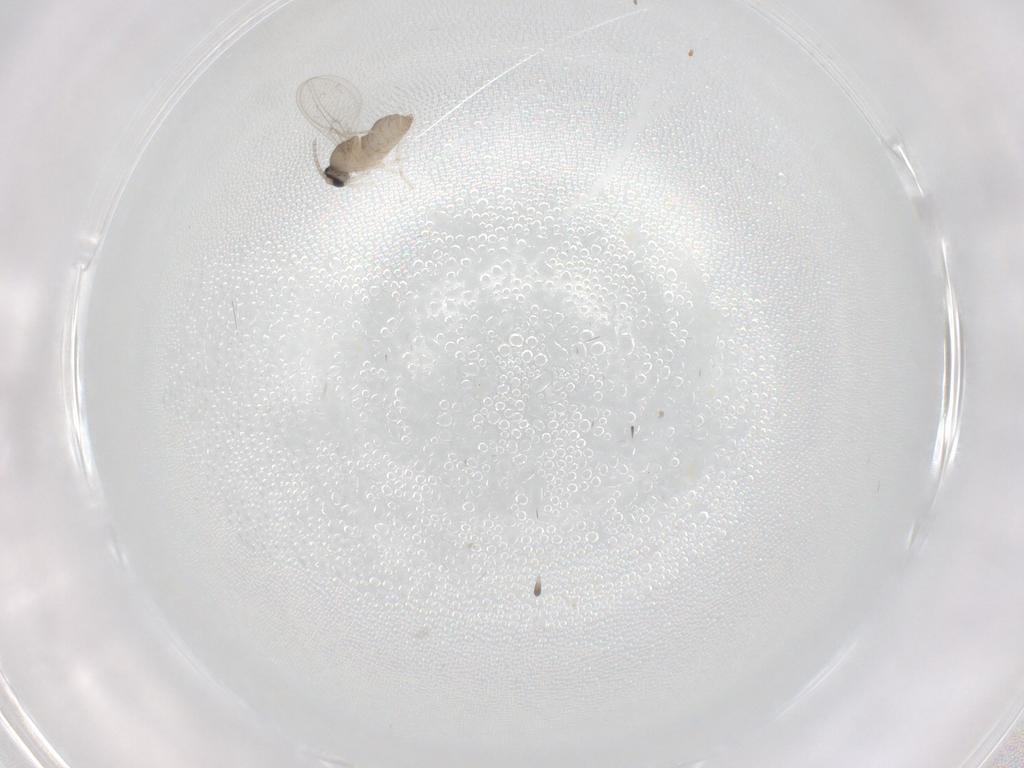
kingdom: Animalia
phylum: Arthropoda
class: Insecta
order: Diptera
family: Cecidomyiidae
